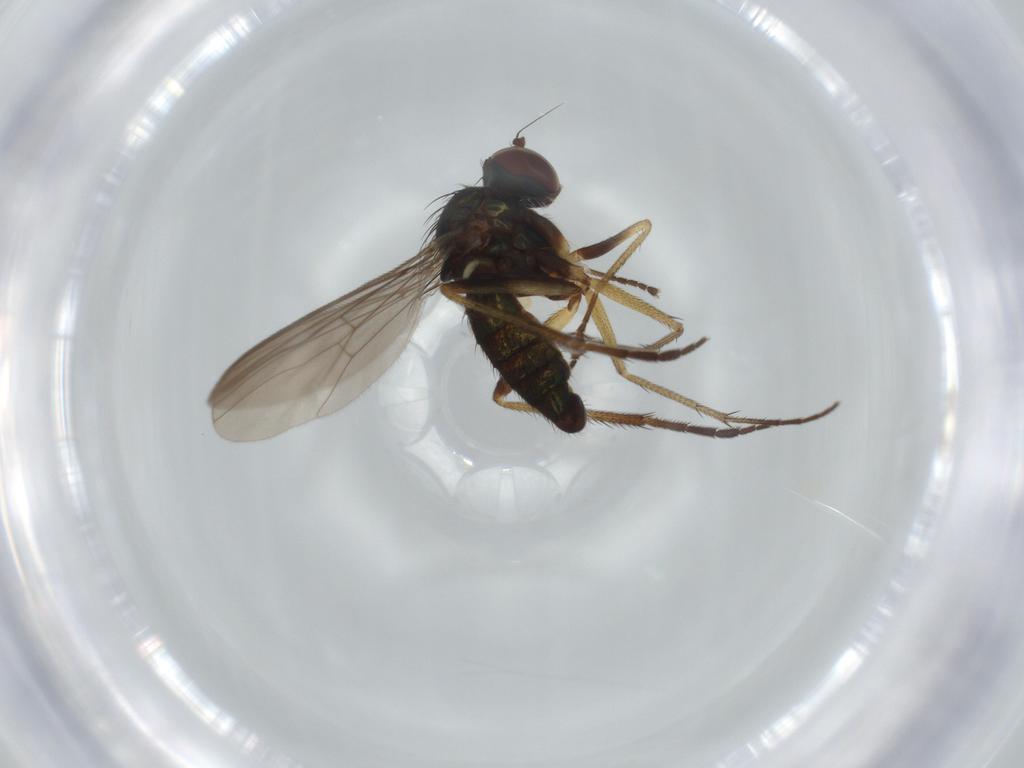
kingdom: Animalia
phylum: Arthropoda
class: Insecta
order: Diptera
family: Dolichopodidae
